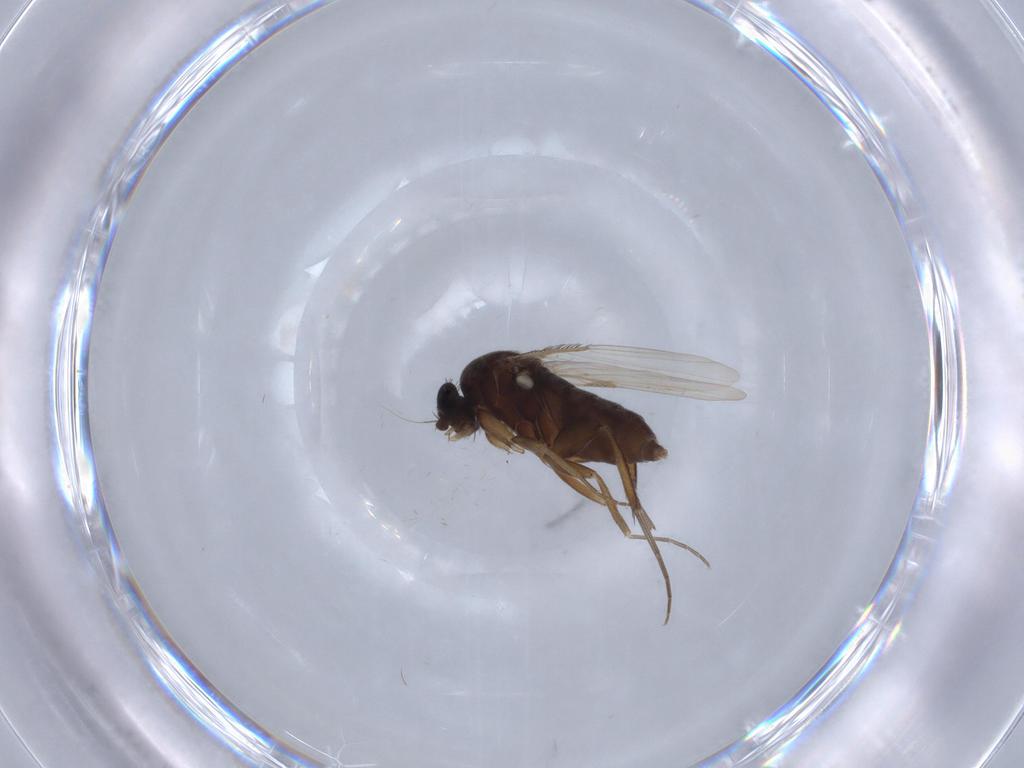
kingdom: Animalia
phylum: Arthropoda
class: Insecta
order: Diptera
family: Phoridae
